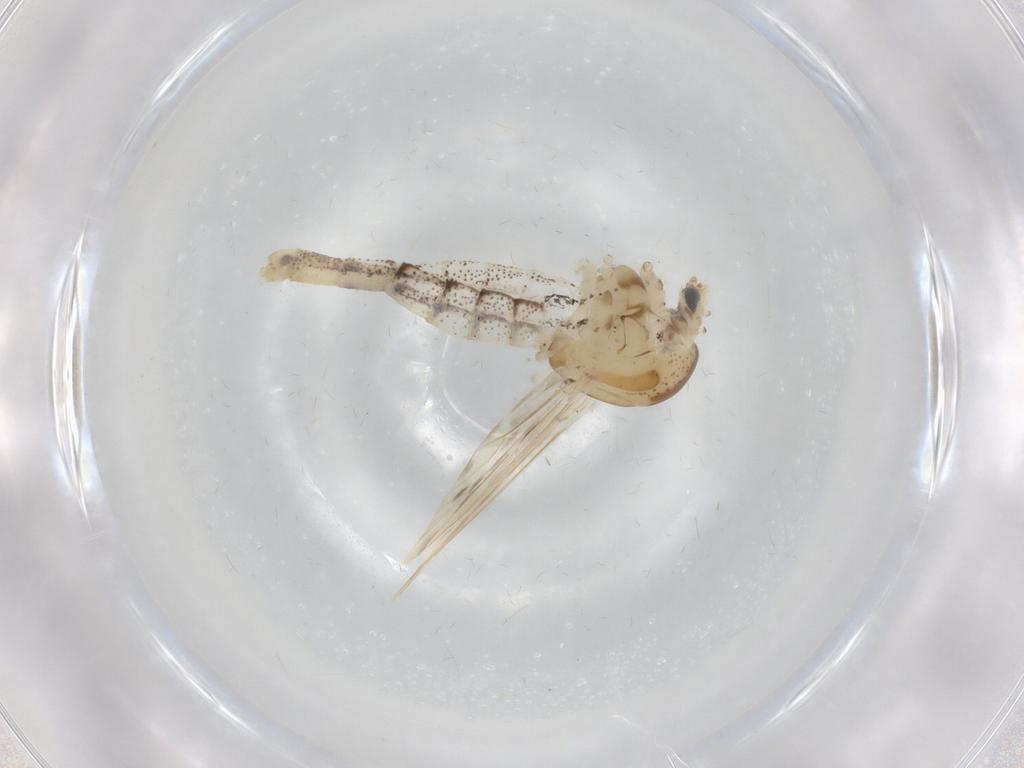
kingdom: Animalia
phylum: Arthropoda
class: Insecta
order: Diptera
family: Chaoboridae
